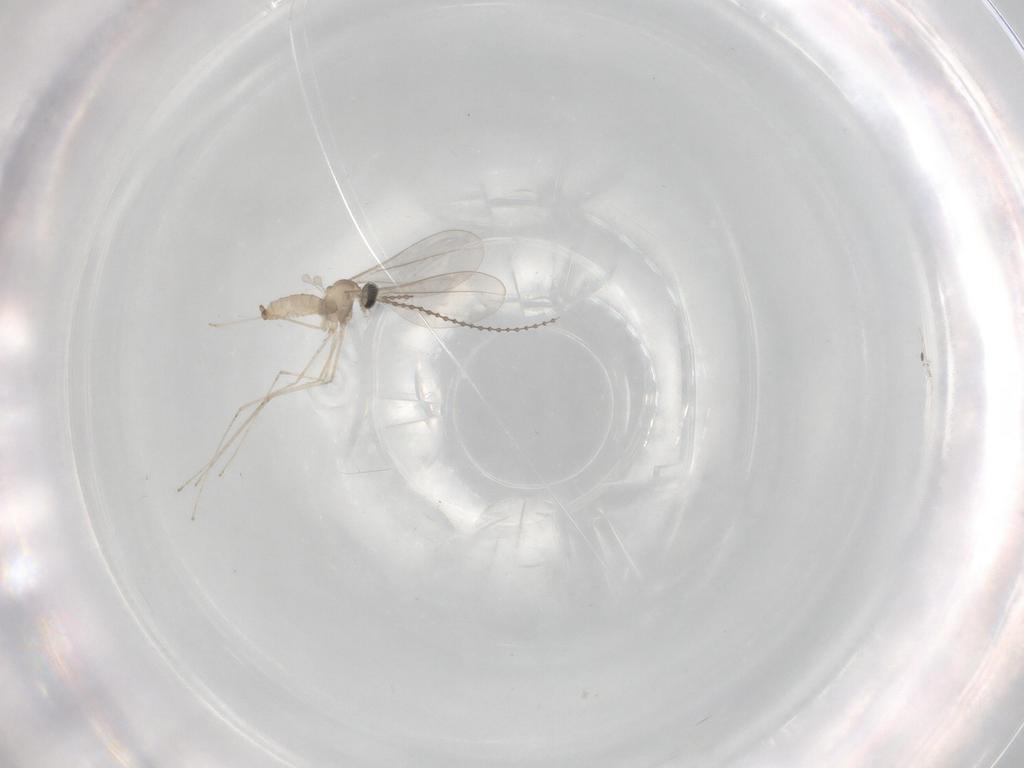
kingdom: Animalia
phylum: Arthropoda
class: Insecta
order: Diptera
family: Cecidomyiidae
